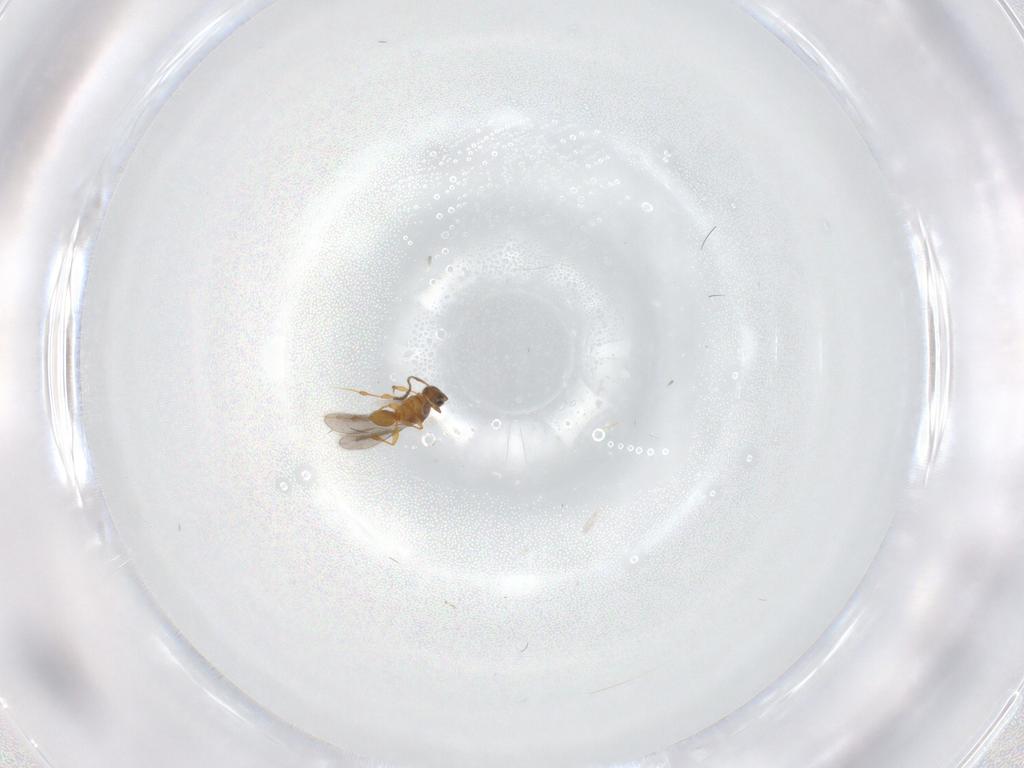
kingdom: Animalia
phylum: Arthropoda
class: Insecta
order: Hymenoptera
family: Platygastridae
